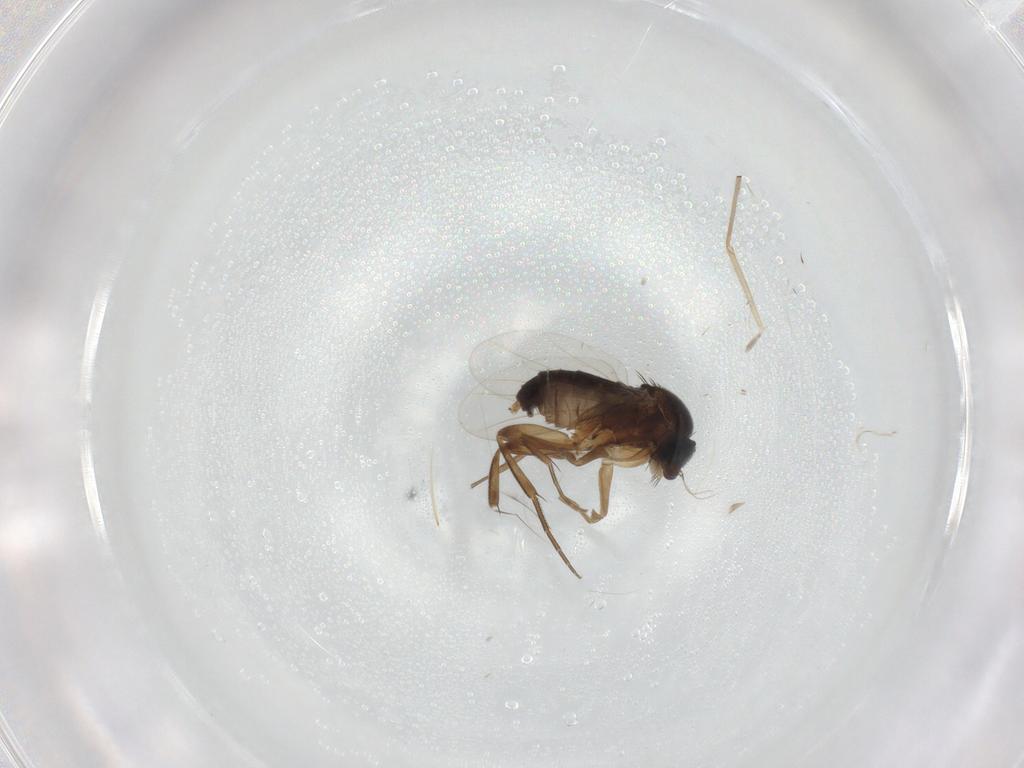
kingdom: Animalia
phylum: Arthropoda
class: Insecta
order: Diptera
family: Phoridae
